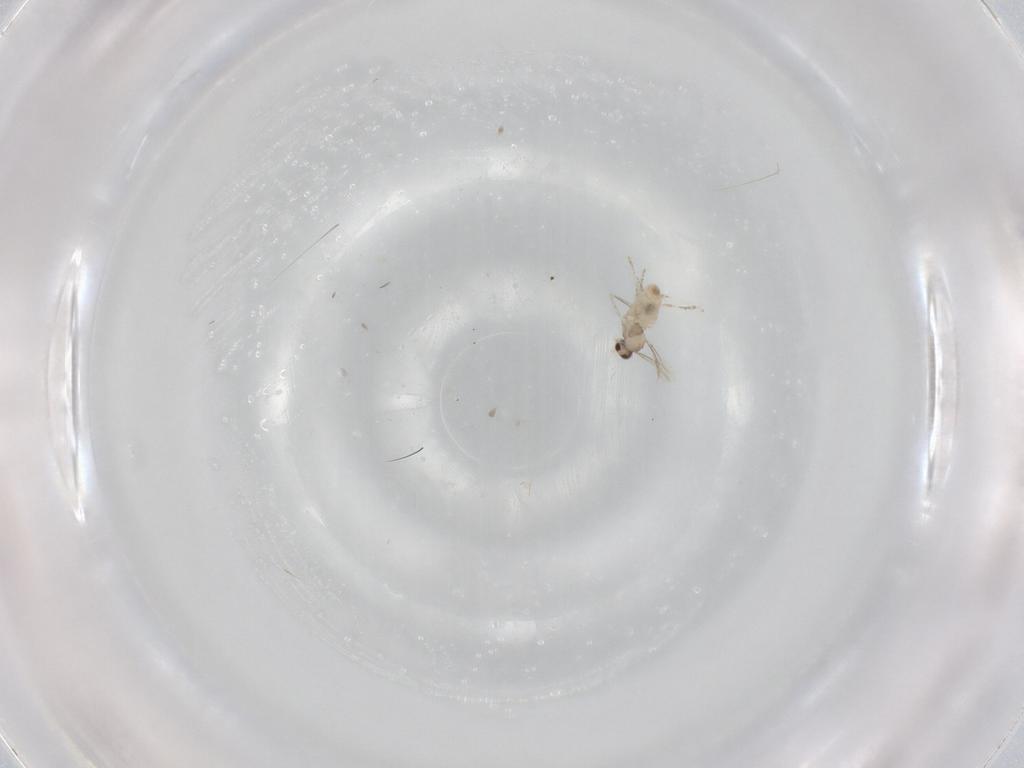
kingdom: Animalia
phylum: Arthropoda
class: Insecta
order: Diptera
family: Cecidomyiidae
